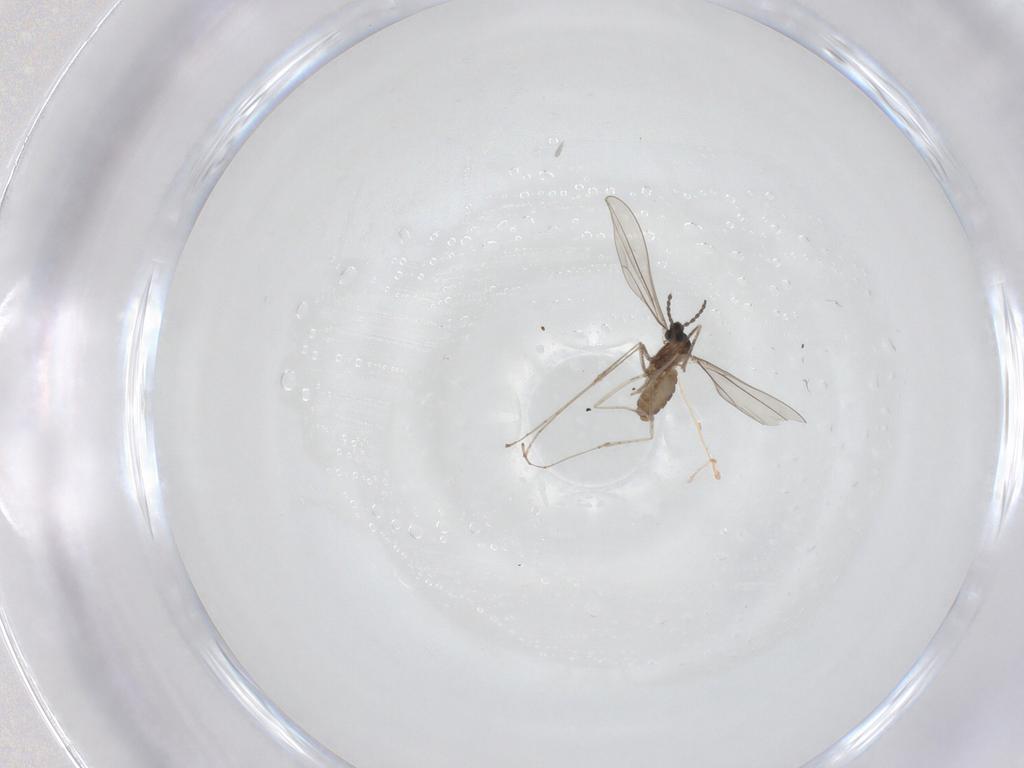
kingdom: Animalia
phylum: Arthropoda
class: Insecta
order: Diptera
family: Cecidomyiidae
